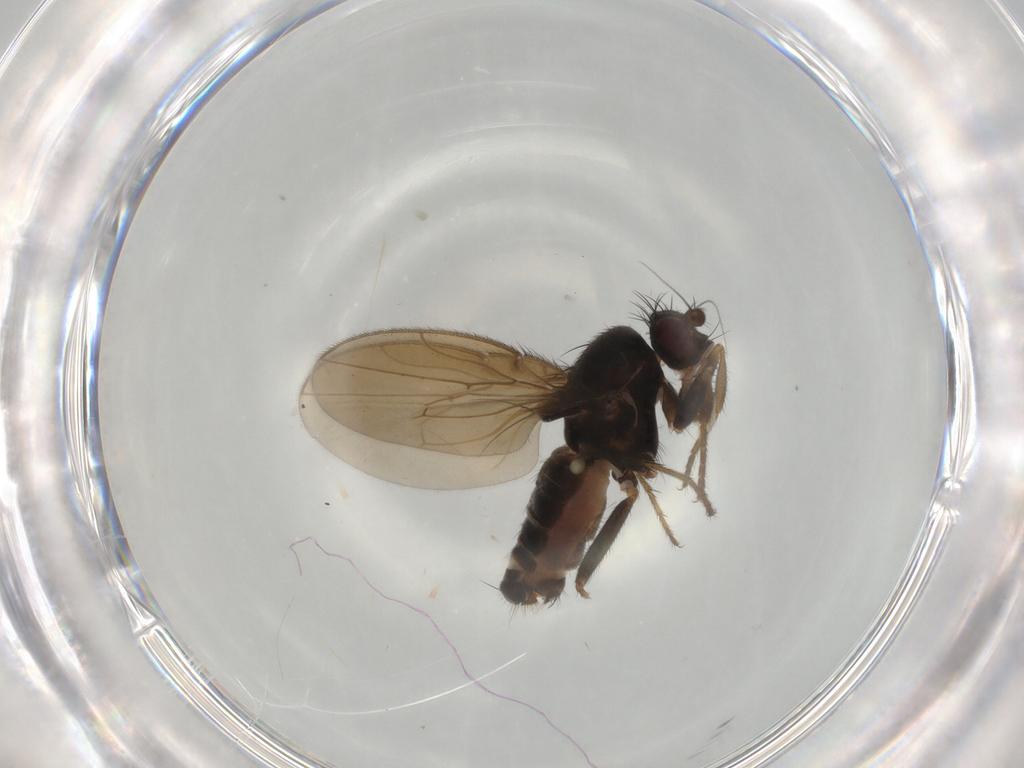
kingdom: Animalia
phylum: Arthropoda
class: Insecta
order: Diptera
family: Sphaeroceridae
